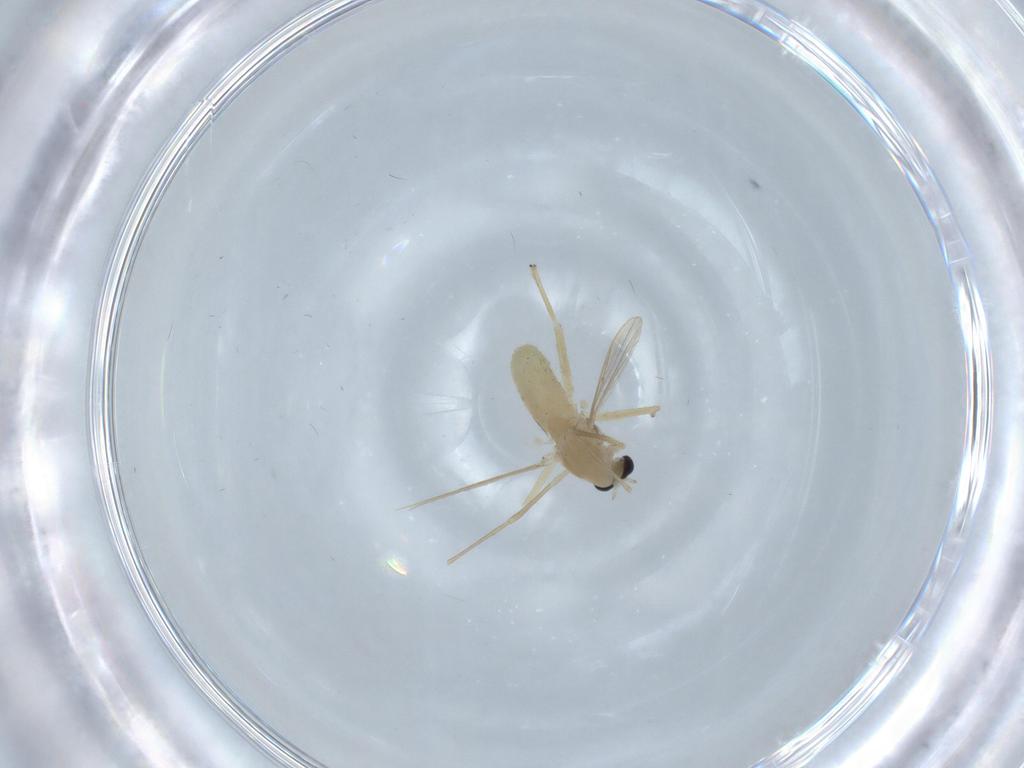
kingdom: Animalia
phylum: Arthropoda
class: Insecta
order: Diptera
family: Chironomidae
